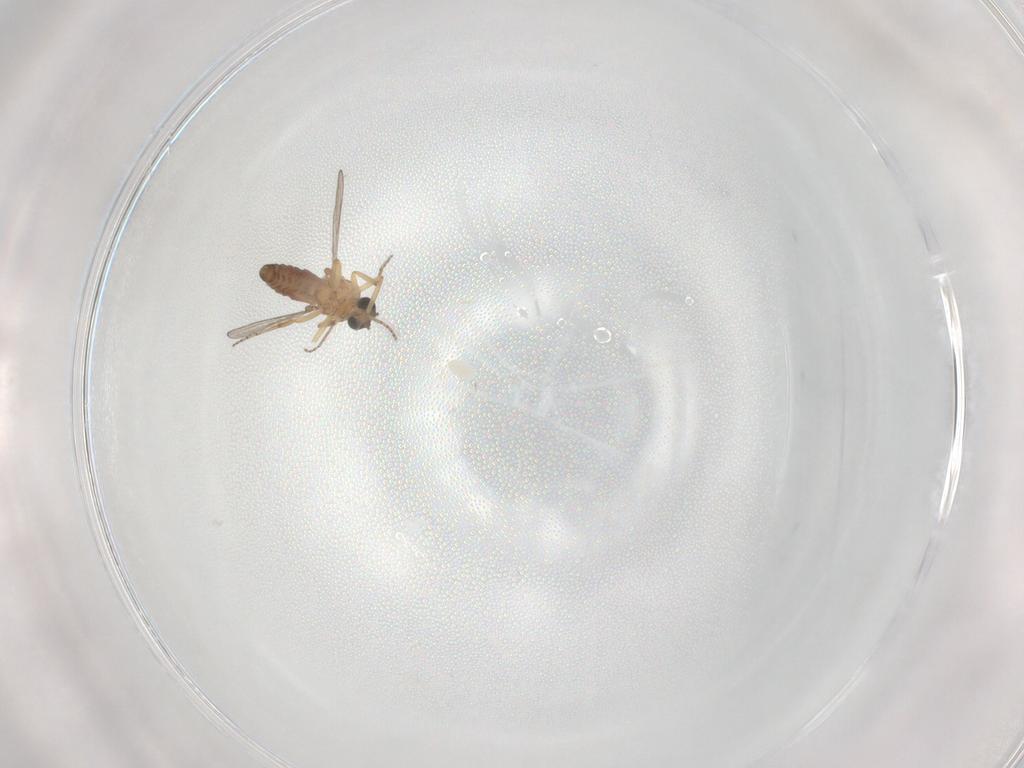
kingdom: Animalia
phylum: Arthropoda
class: Insecta
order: Diptera
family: Ceratopogonidae
